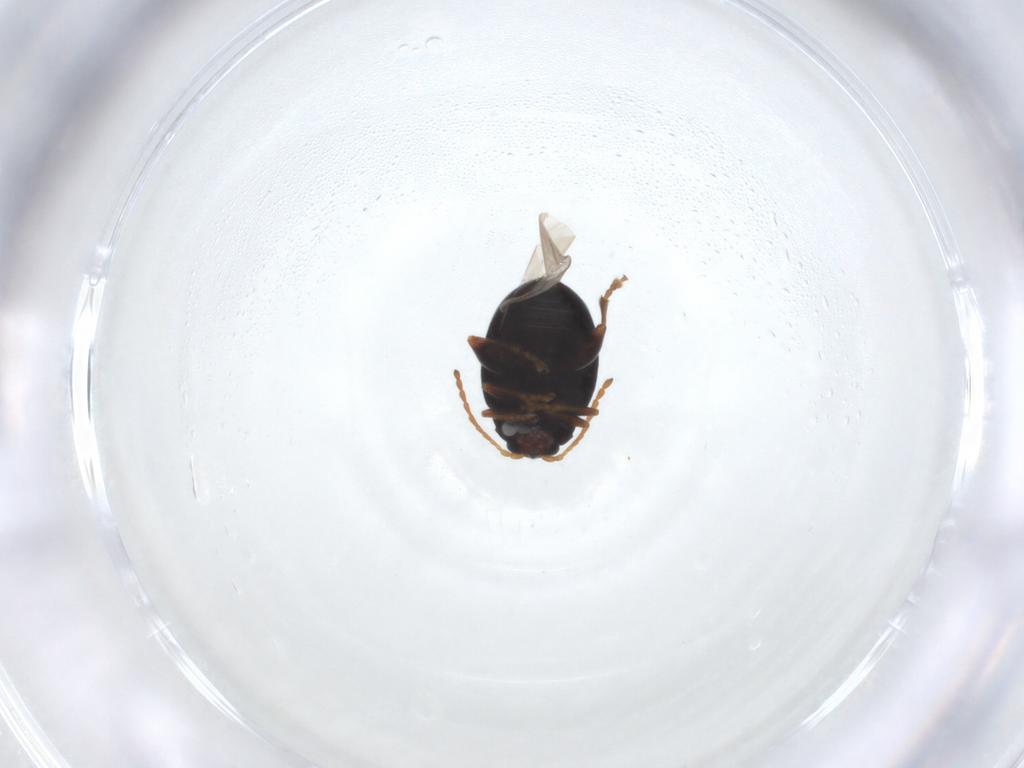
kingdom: Animalia
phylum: Arthropoda
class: Insecta
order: Coleoptera
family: Chrysomelidae
